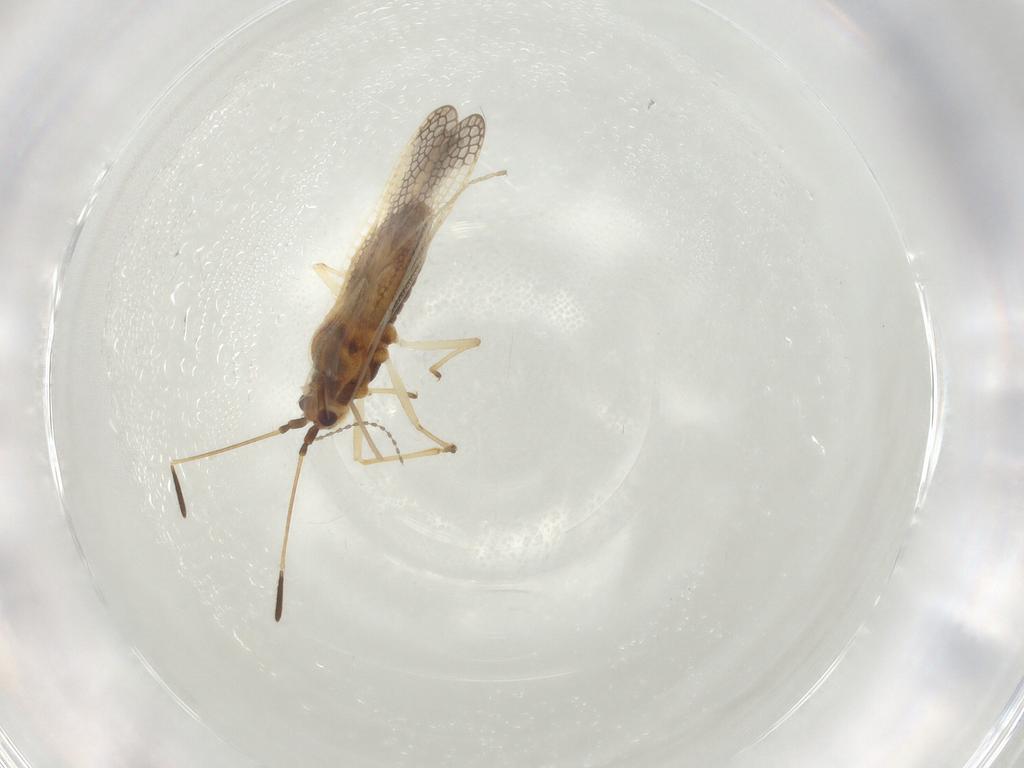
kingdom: Animalia
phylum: Arthropoda
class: Insecta
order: Hemiptera
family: Tingidae
